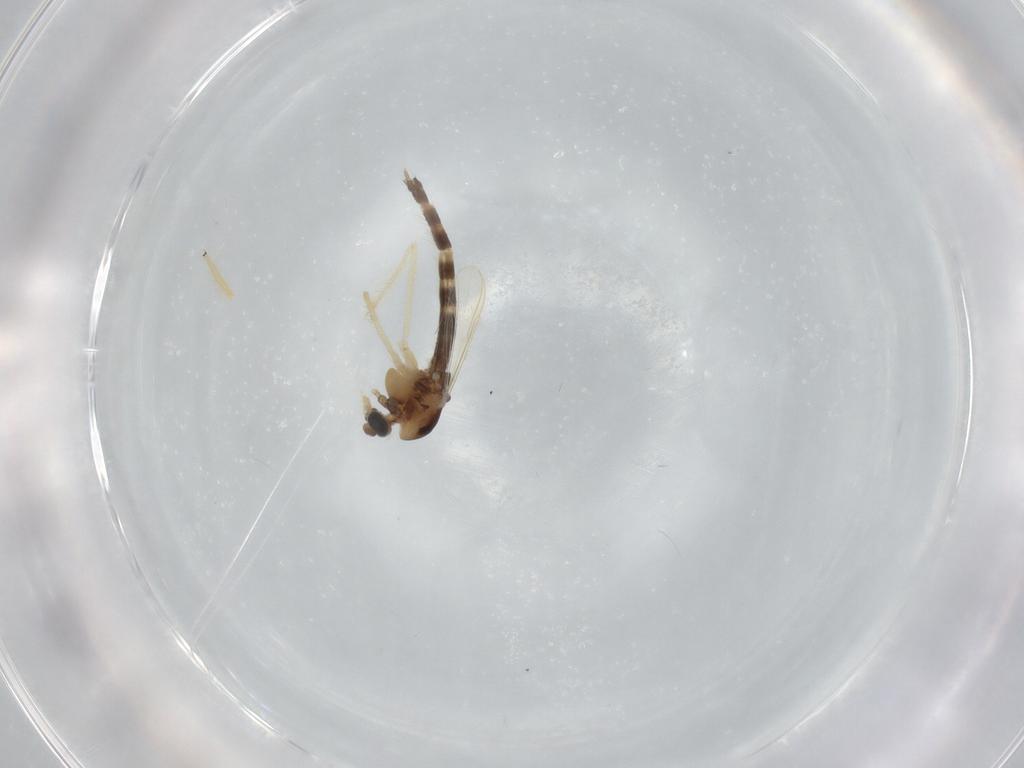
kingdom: Animalia
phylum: Arthropoda
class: Insecta
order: Diptera
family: Chironomidae
